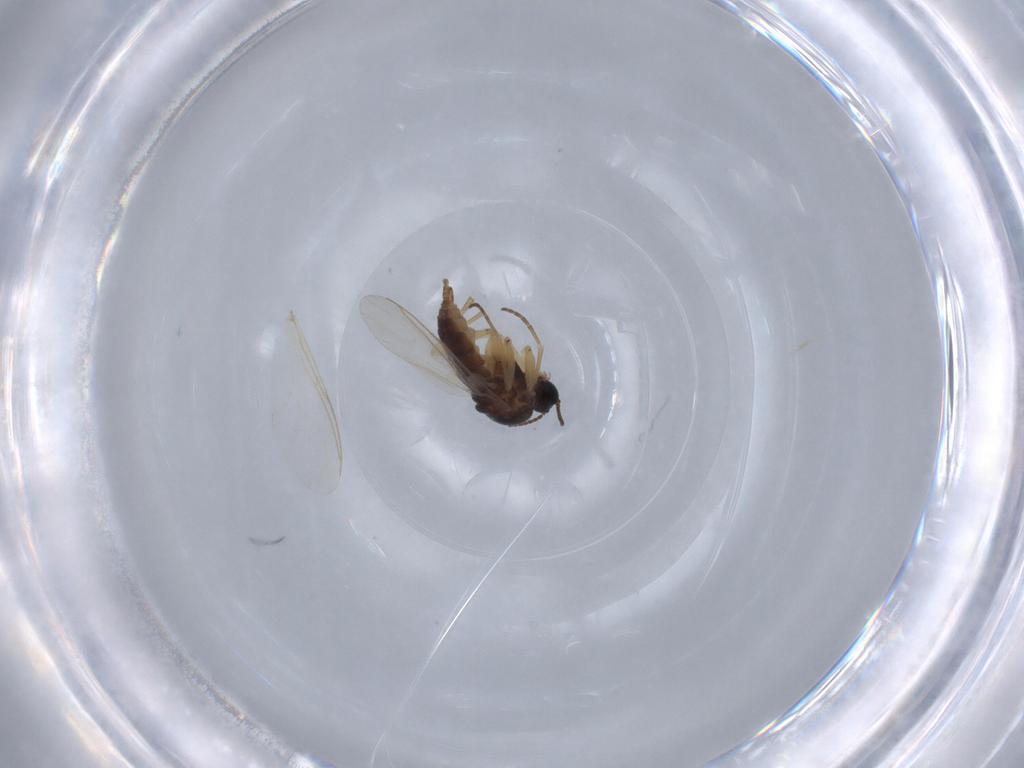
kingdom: Animalia
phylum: Arthropoda
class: Insecta
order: Diptera
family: Sciaridae
